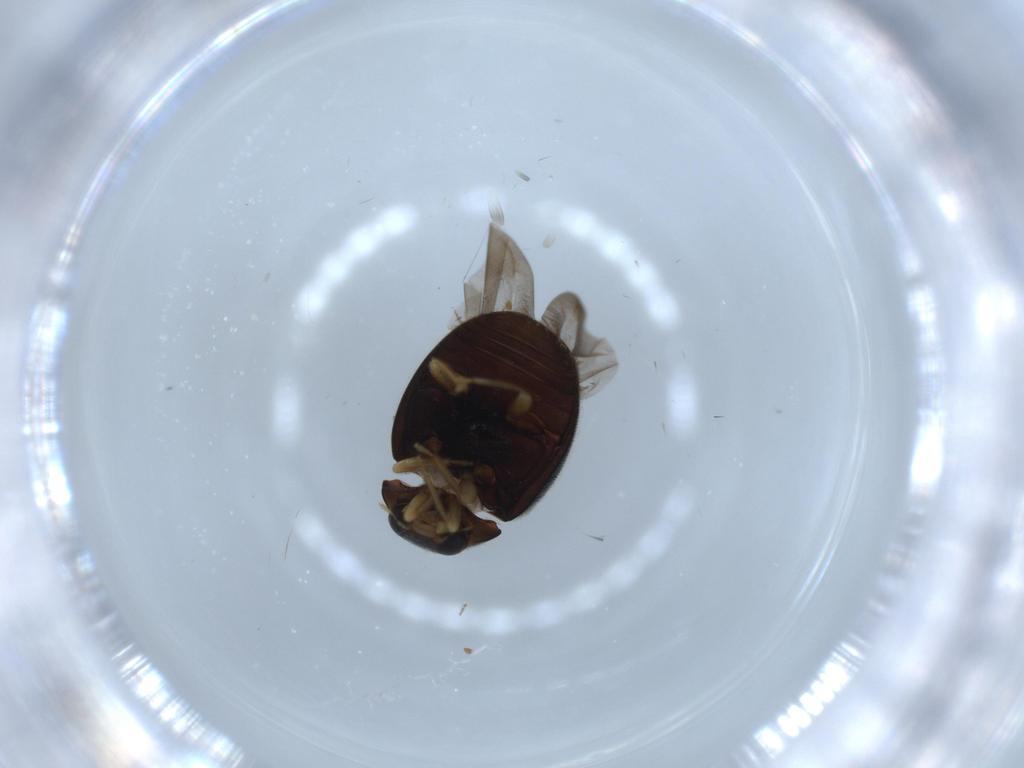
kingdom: Animalia
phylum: Arthropoda
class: Insecta
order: Coleoptera
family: Coccinellidae
